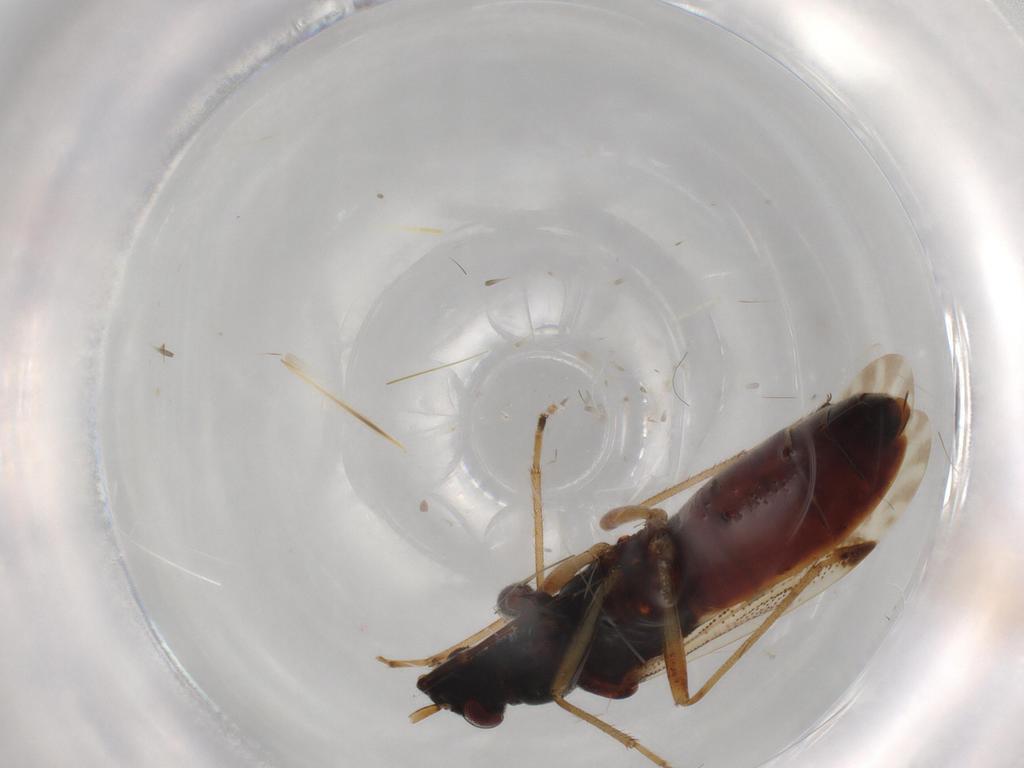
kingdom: Animalia
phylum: Arthropoda
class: Insecta
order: Hemiptera
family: Rhyparochromidae
